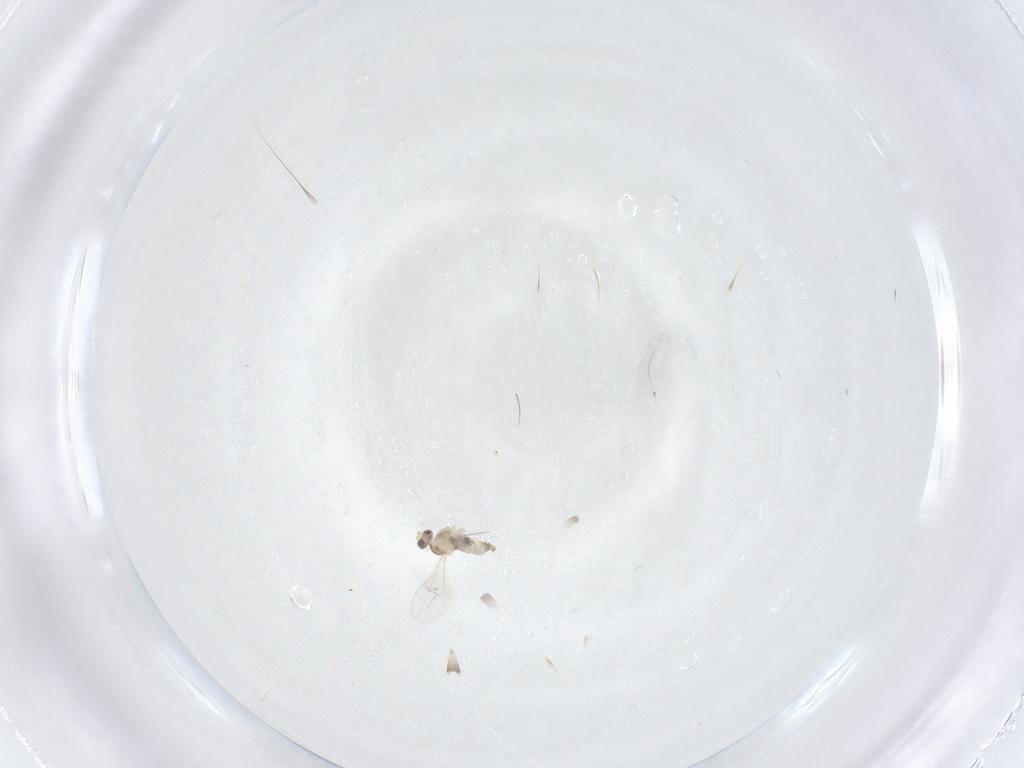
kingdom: Animalia
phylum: Arthropoda
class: Insecta
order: Diptera
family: Cecidomyiidae
